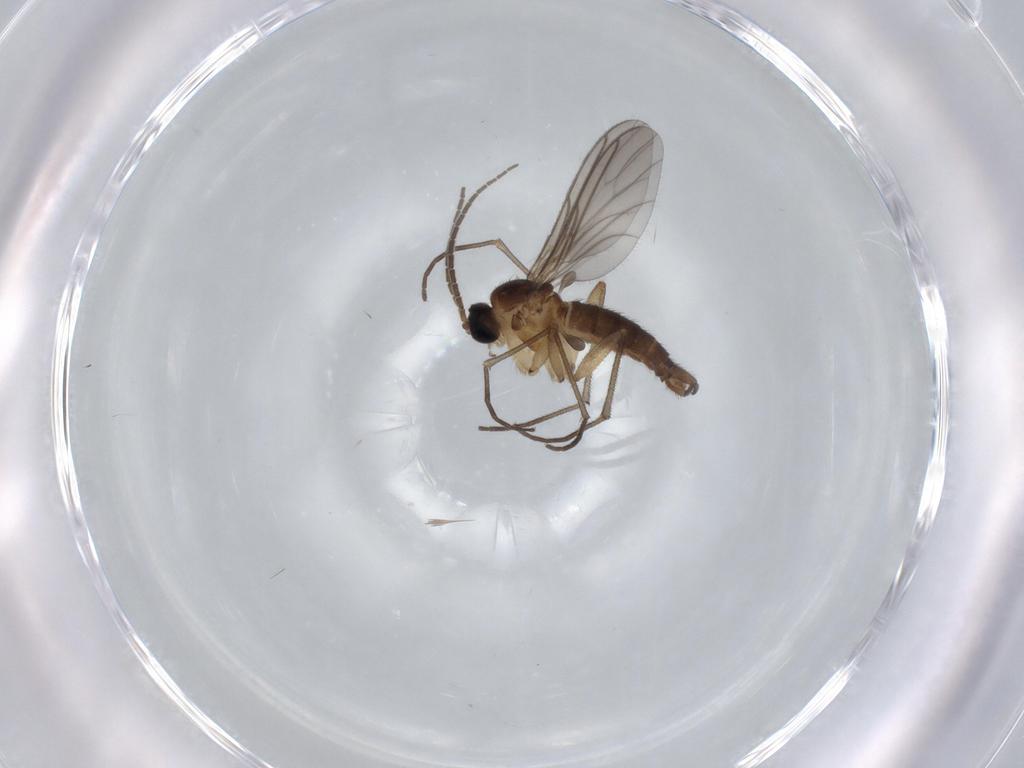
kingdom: Animalia
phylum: Arthropoda
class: Insecta
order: Diptera
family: Sciaridae
